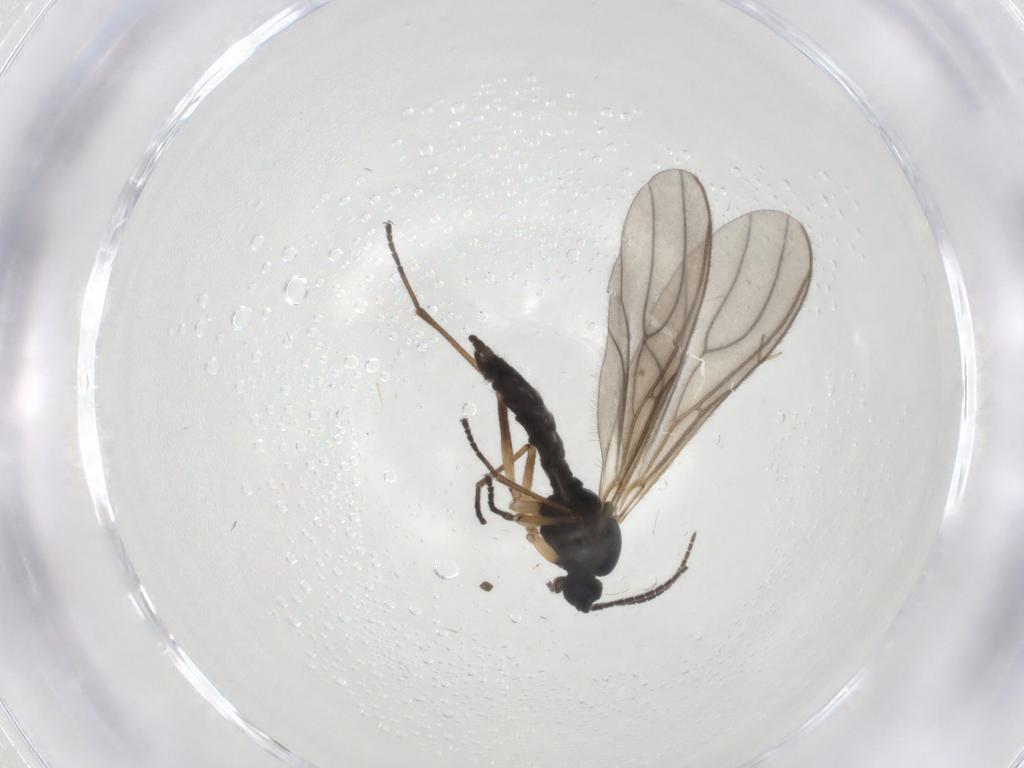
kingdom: Animalia
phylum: Arthropoda
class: Insecta
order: Diptera
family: Sciaridae
